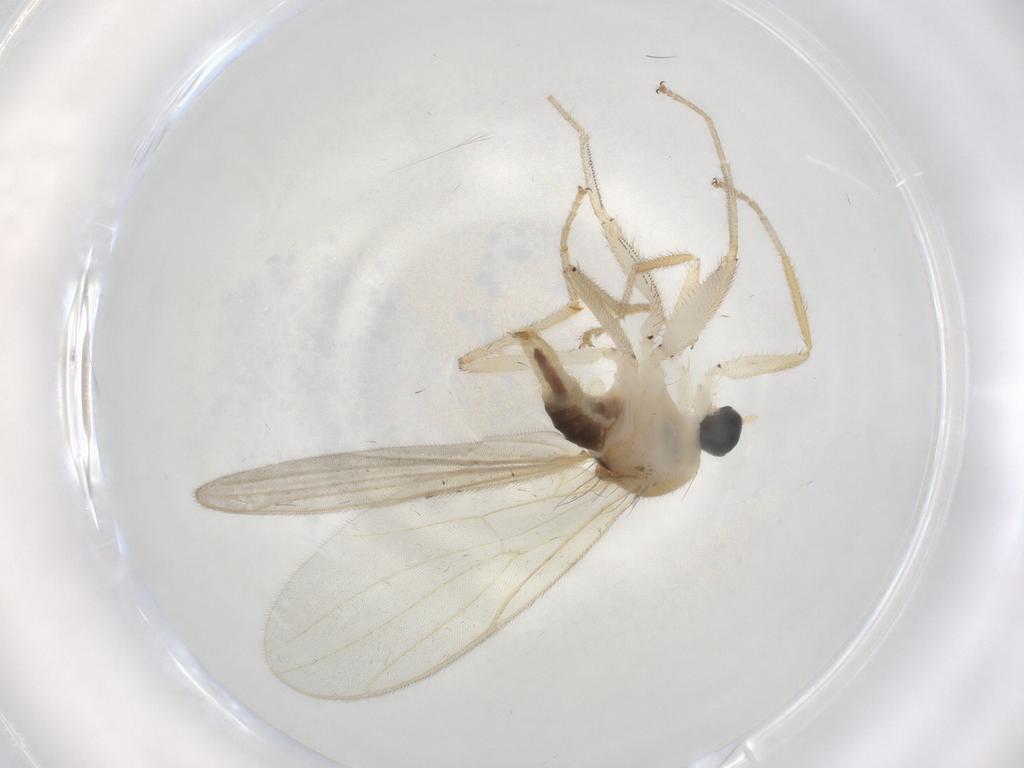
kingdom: Animalia
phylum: Arthropoda
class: Insecta
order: Diptera
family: Hybotidae
